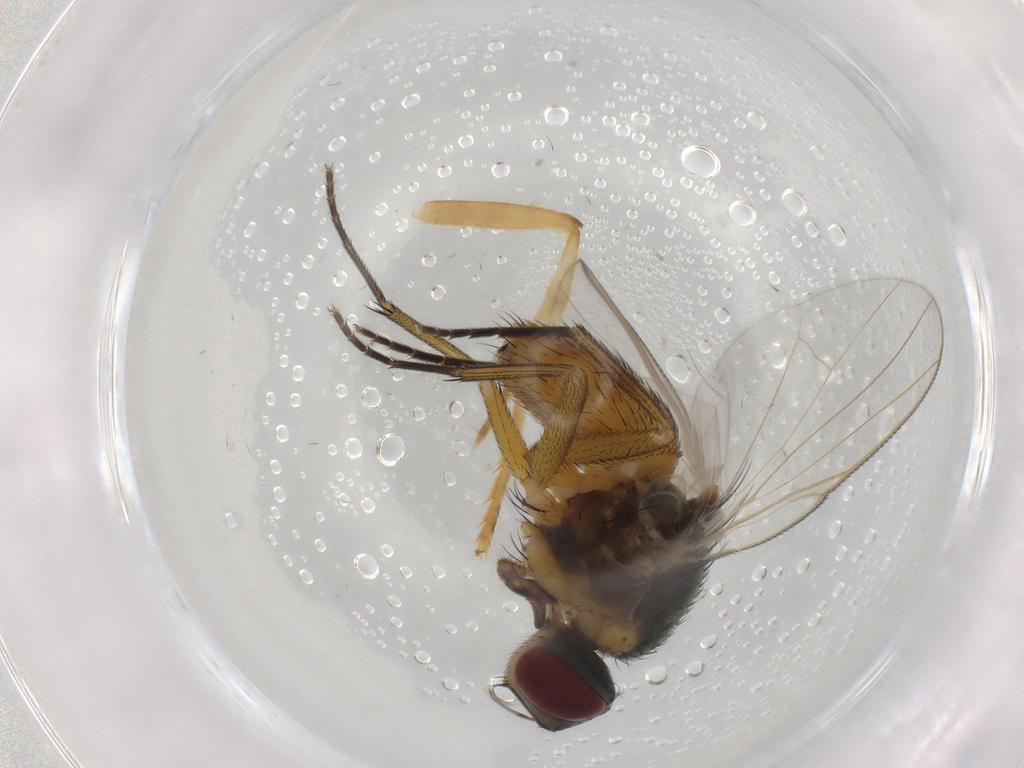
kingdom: Animalia
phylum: Arthropoda
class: Insecta
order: Diptera
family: Muscidae
